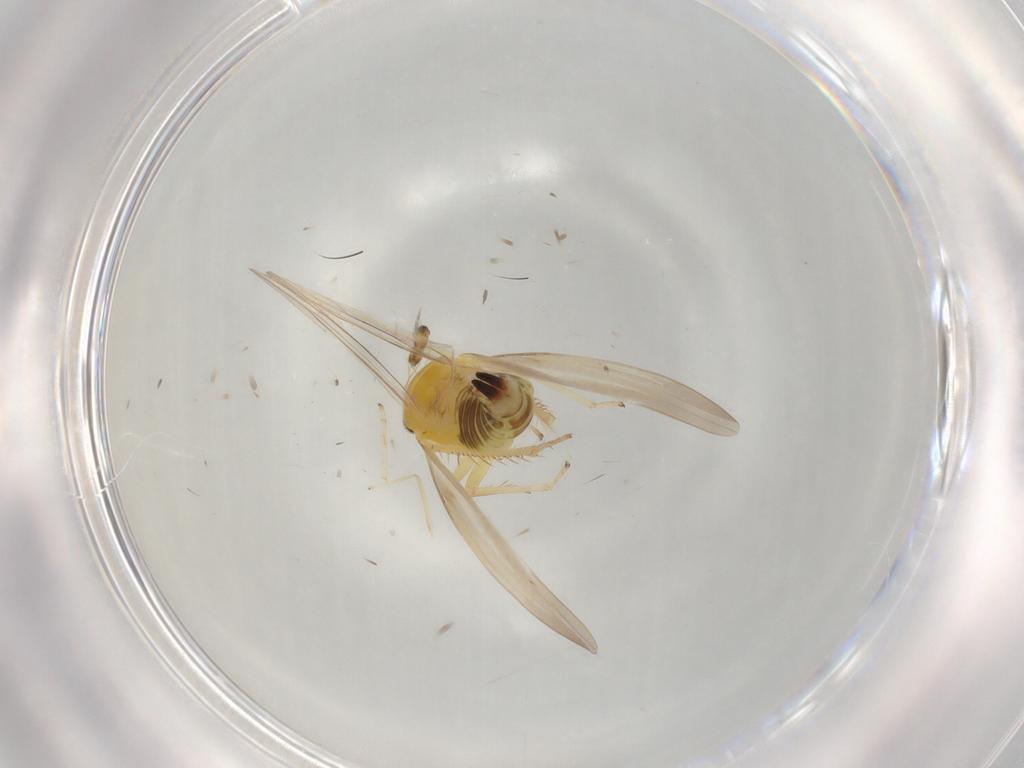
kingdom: Animalia
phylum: Arthropoda
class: Insecta
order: Hemiptera
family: Cicadellidae
